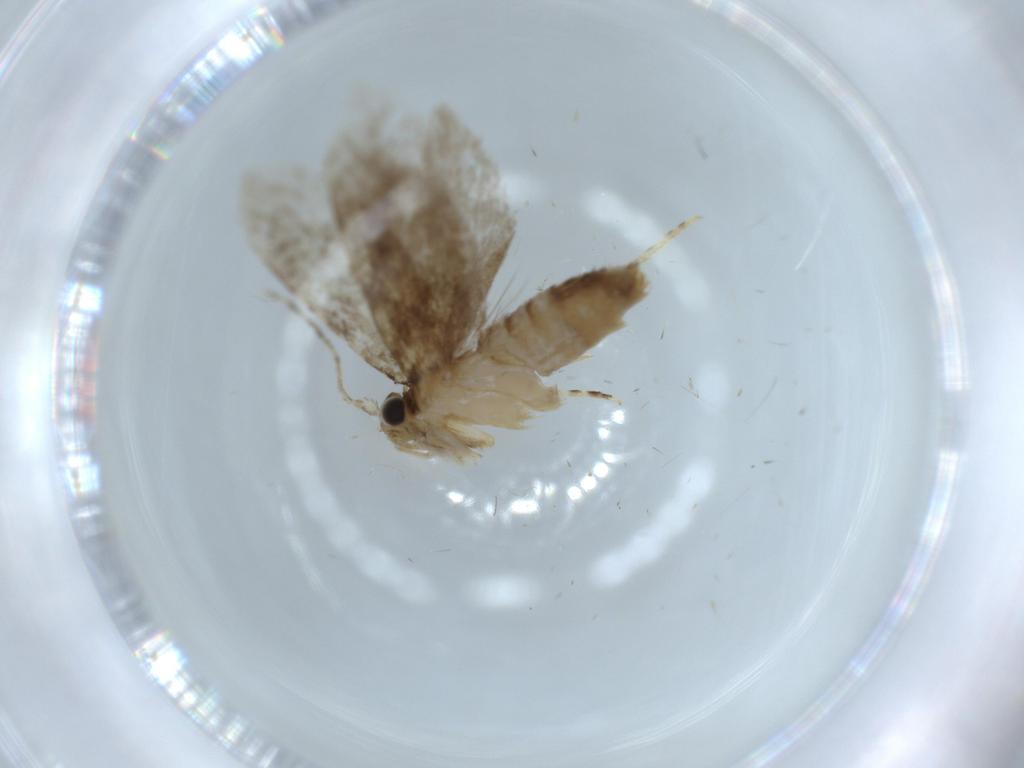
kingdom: Animalia
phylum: Arthropoda
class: Insecta
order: Lepidoptera
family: Tineidae
